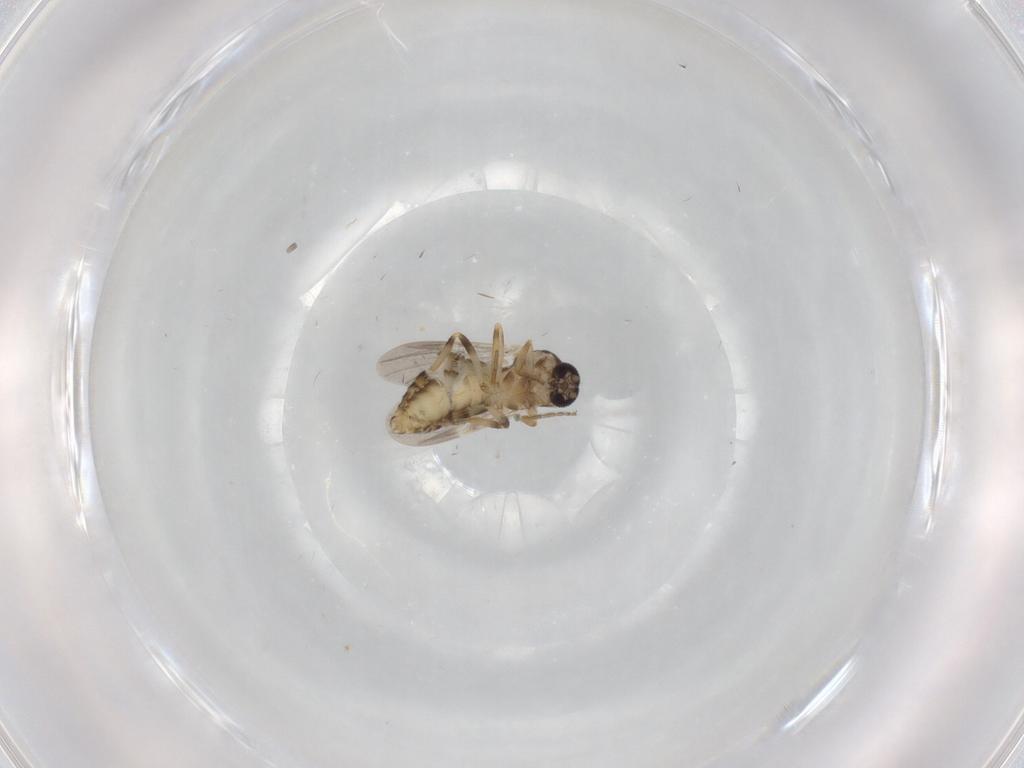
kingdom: Animalia
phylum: Arthropoda
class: Insecta
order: Diptera
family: Ceratopogonidae
